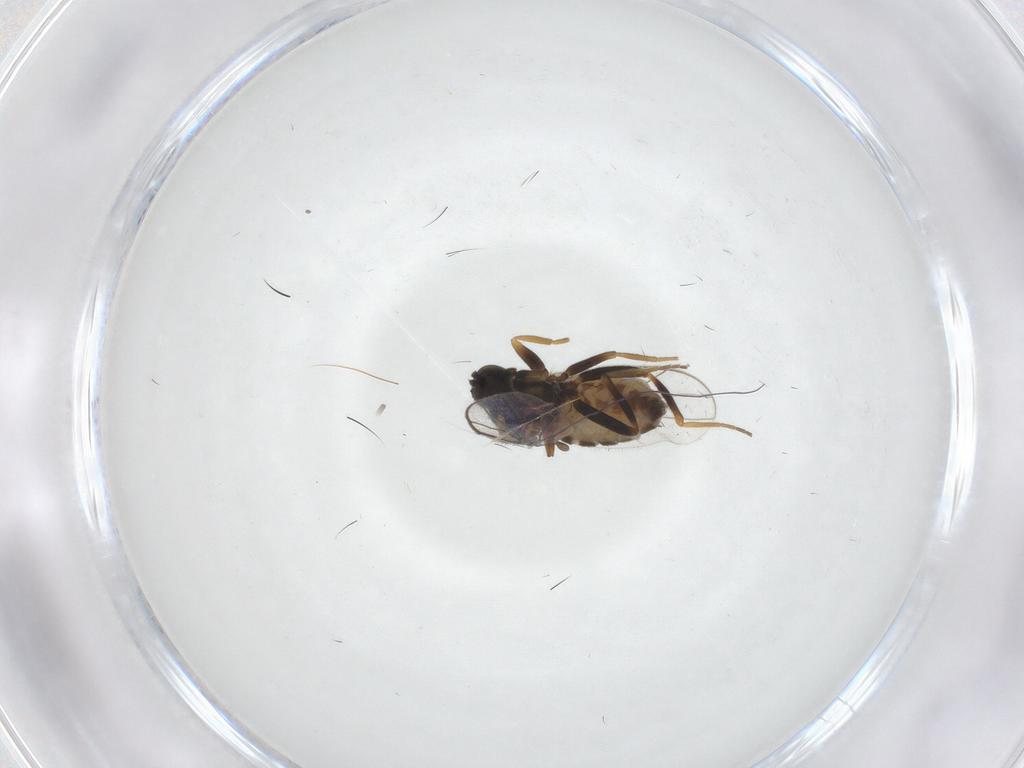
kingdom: Animalia
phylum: Arthropoda
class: Insecta
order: Diptera
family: Hybotidae
